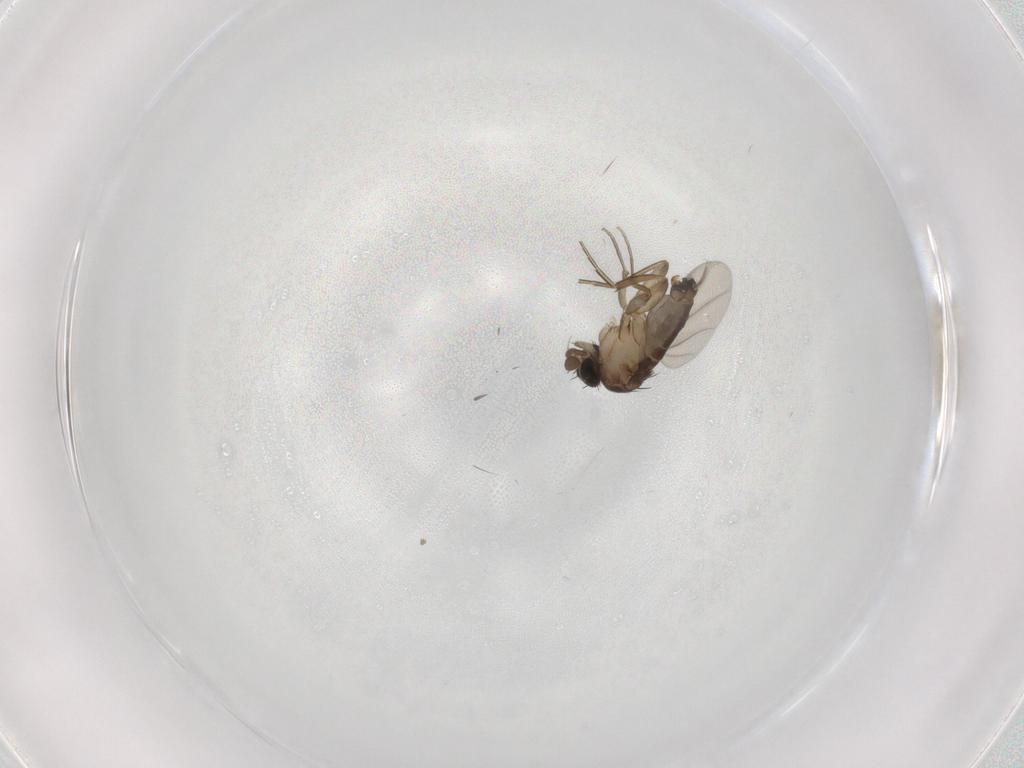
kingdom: Animalia
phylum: Arthropoda
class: Insecta
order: Diptera
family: Phoridae
